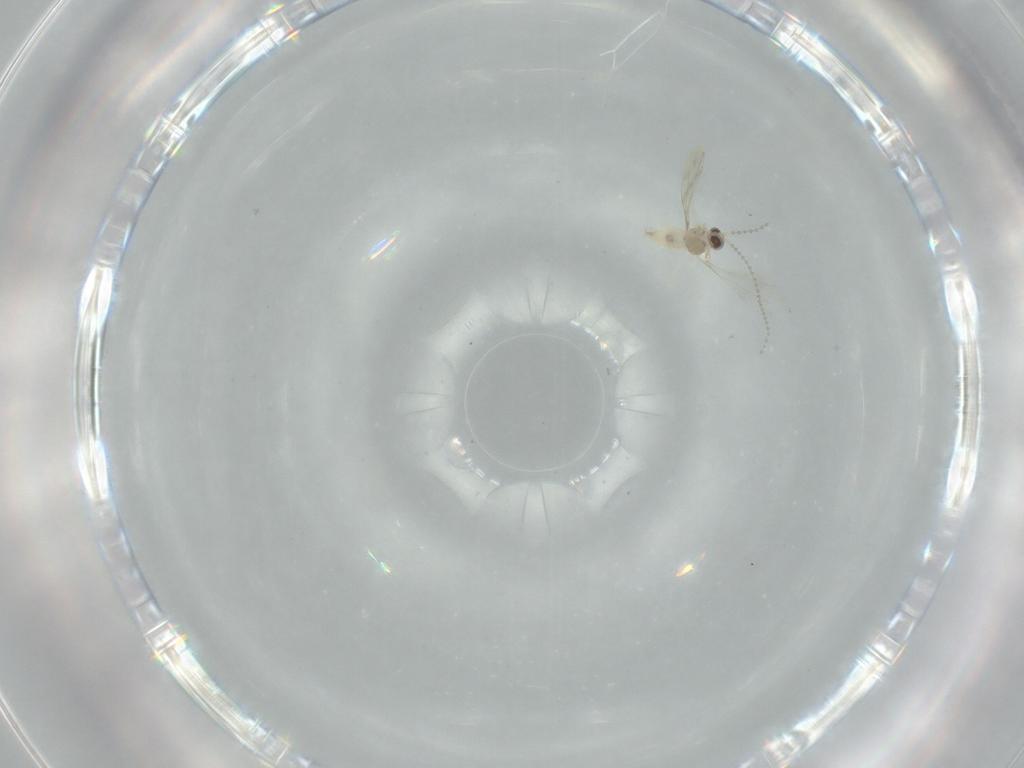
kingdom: Animalia
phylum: Arthropoda
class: Insecta
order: Diptera
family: Cecidomyiidae
